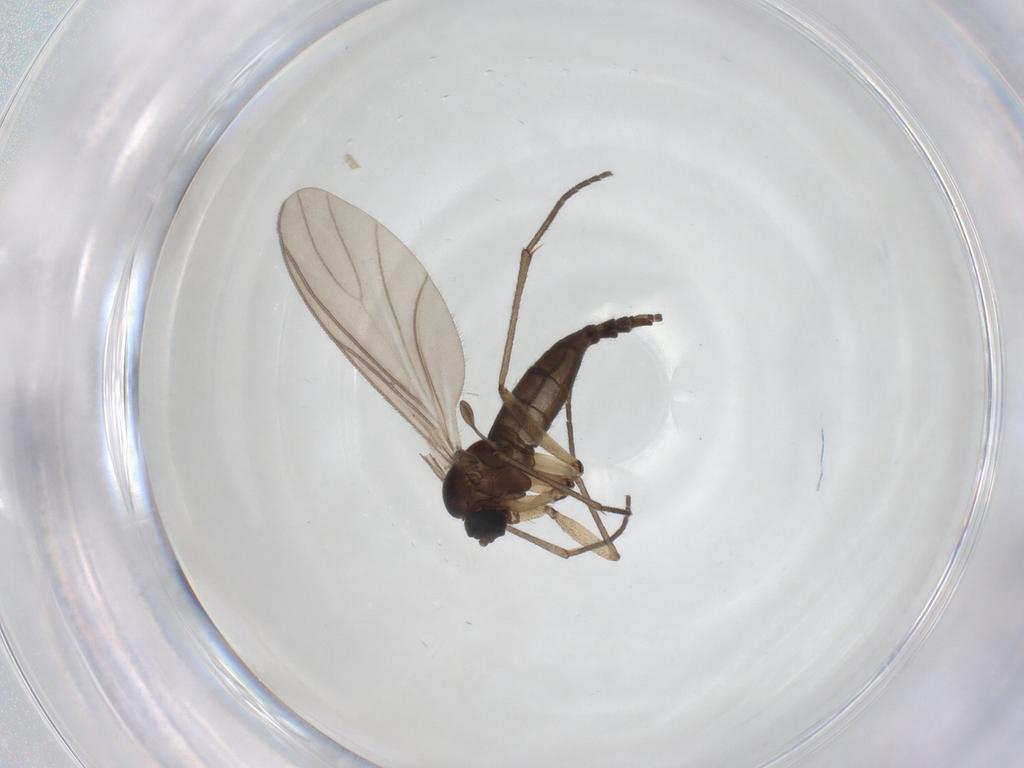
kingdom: Animalia
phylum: Arthropoda
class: Insecta
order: Diptera
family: Sciaridae
